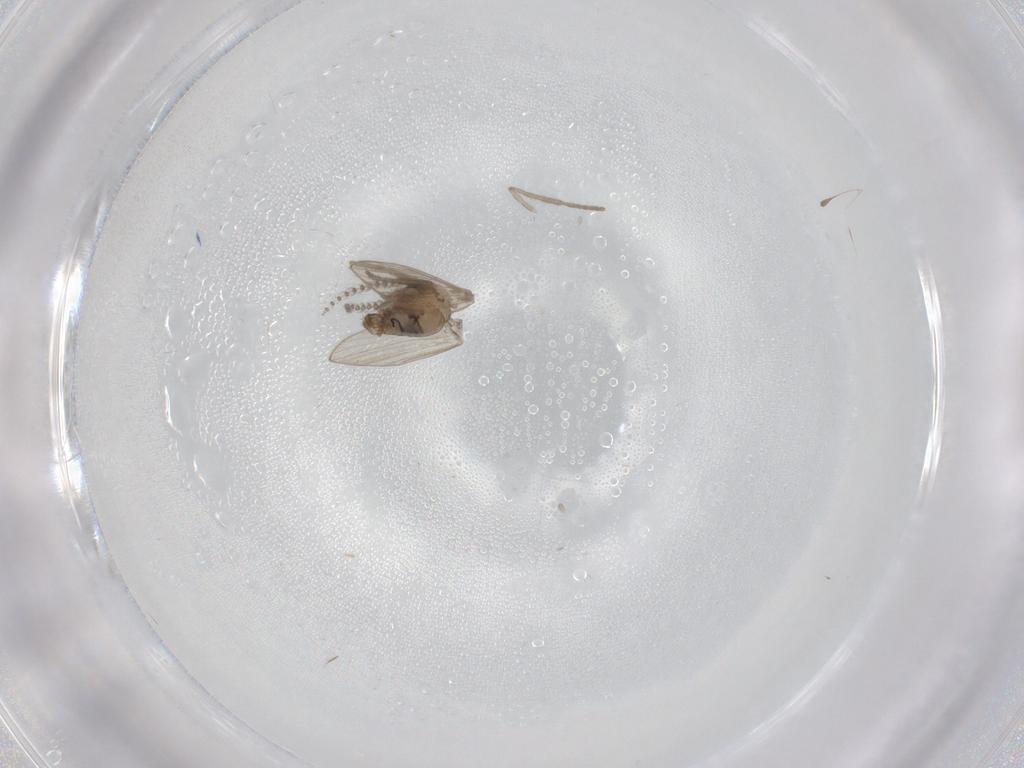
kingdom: Animalia
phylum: Arthropoda
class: Insecta
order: Diptera
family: Psychodidae
